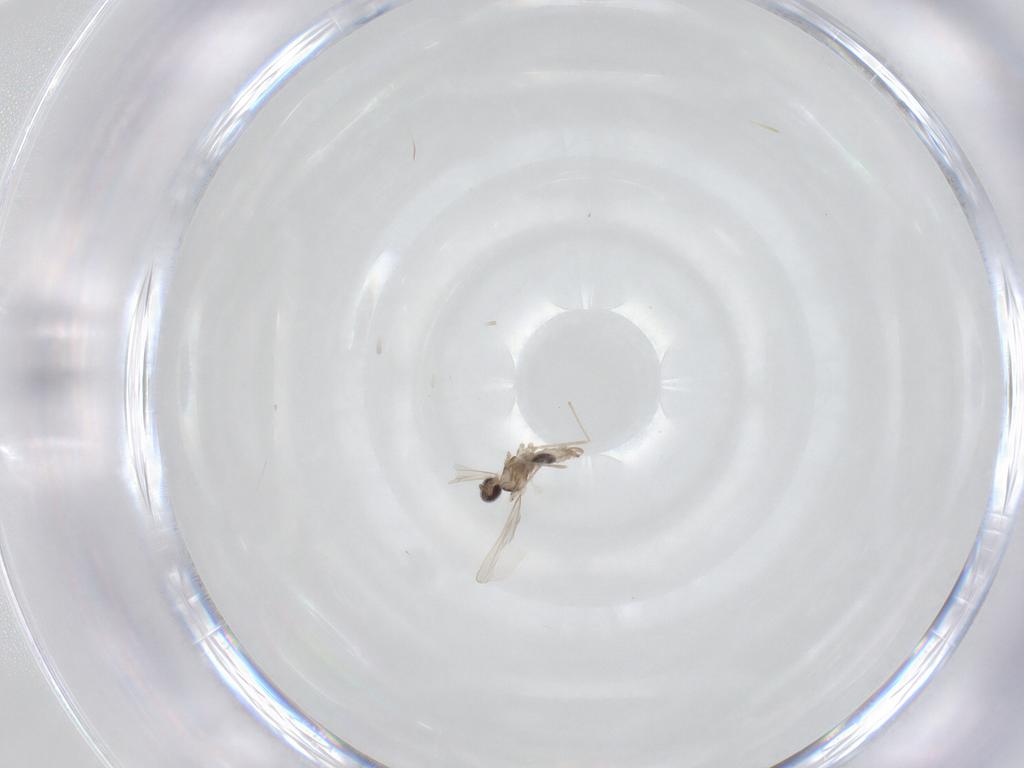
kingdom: Animalia
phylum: Arthropoda
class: Insecta
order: Diptera
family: Cecidomyiidae
